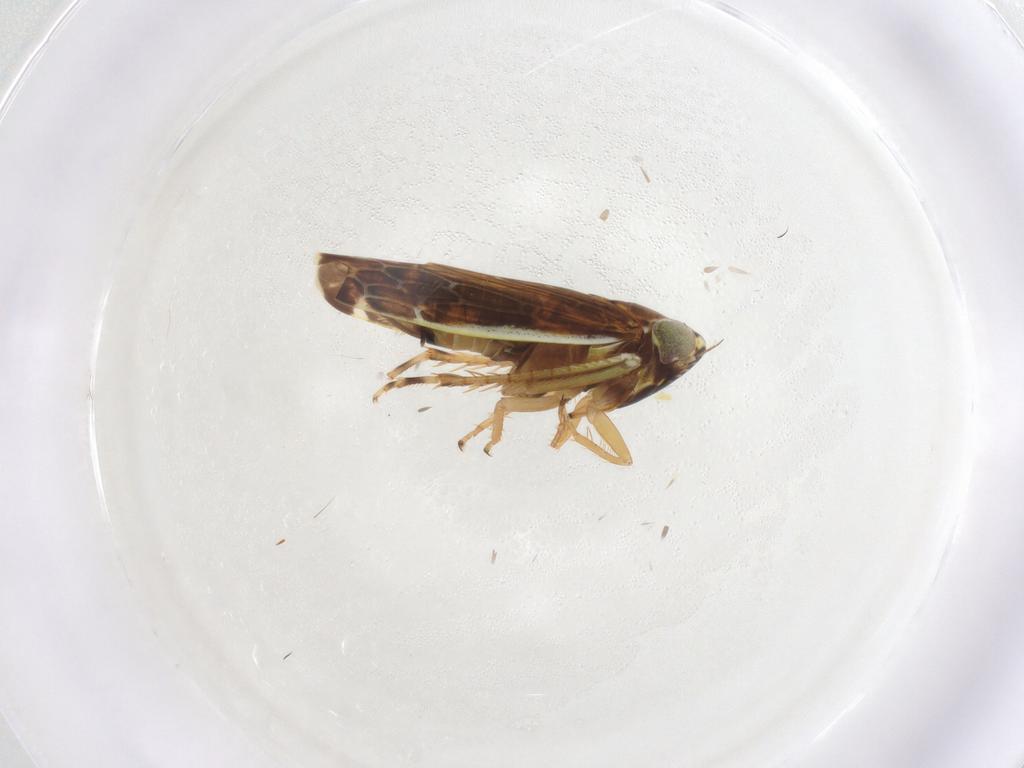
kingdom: Animalia
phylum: Arthropoda
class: Insecta
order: Hemiptera
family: Cicadellidae
